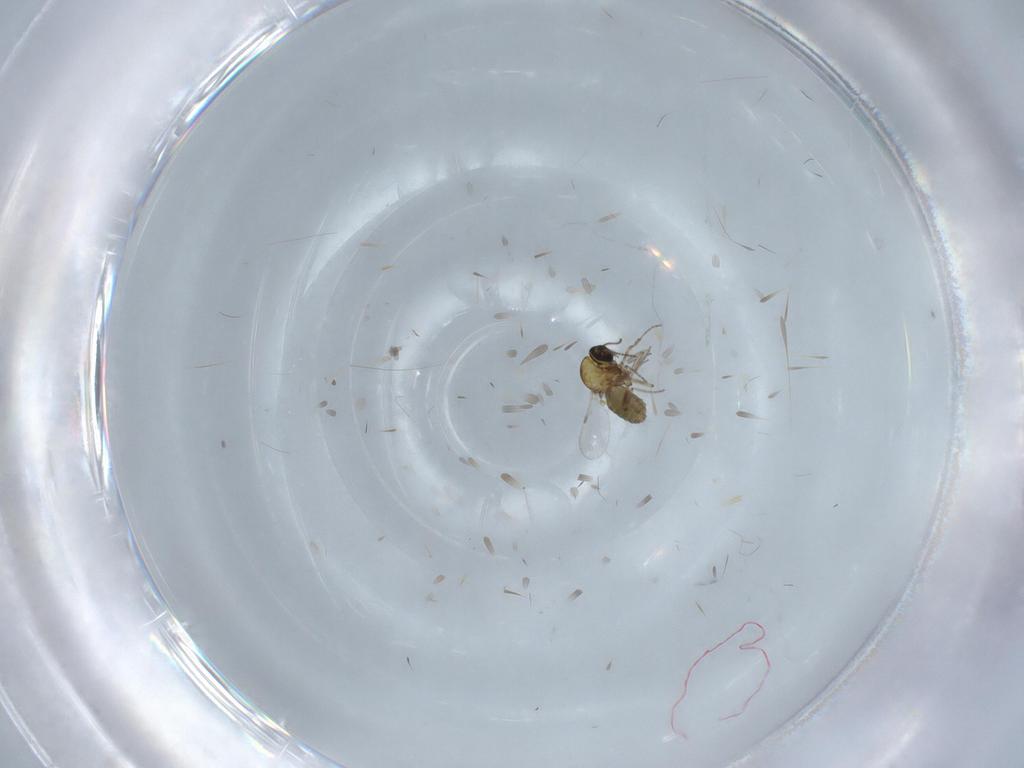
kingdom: Animalia
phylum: Arthropoda
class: Insecta
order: Diptera
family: Ceratopogonidae
